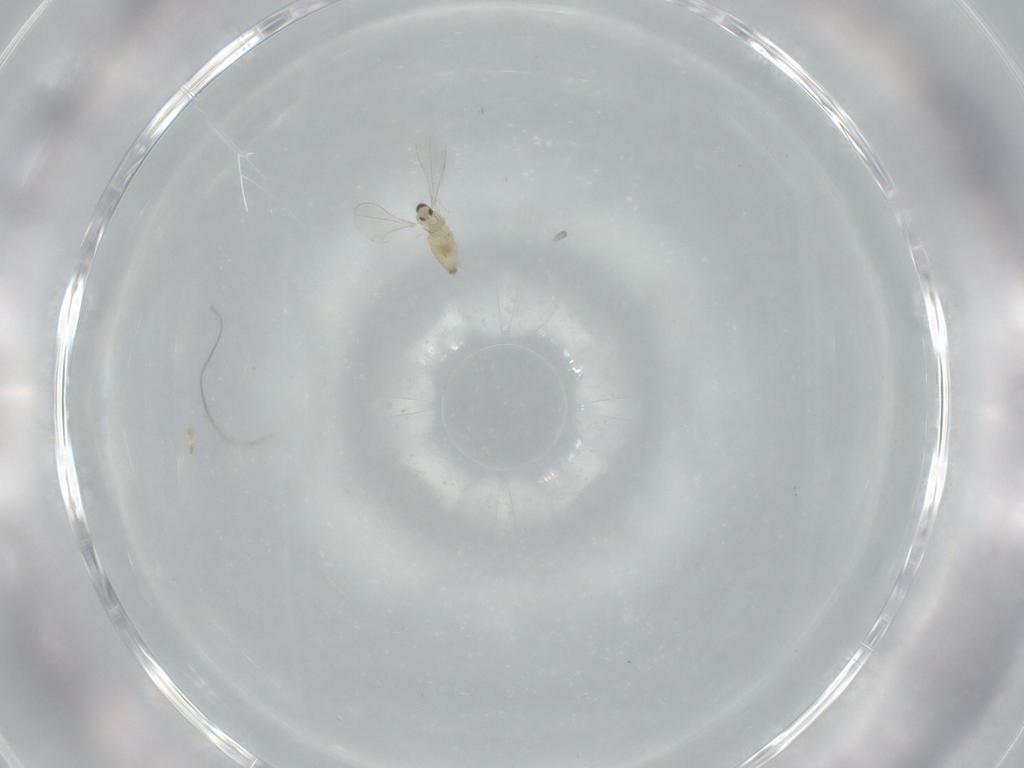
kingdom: Animalia
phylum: Arthropoda
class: Insecta
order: Diptera
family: Cecidomyiidae
